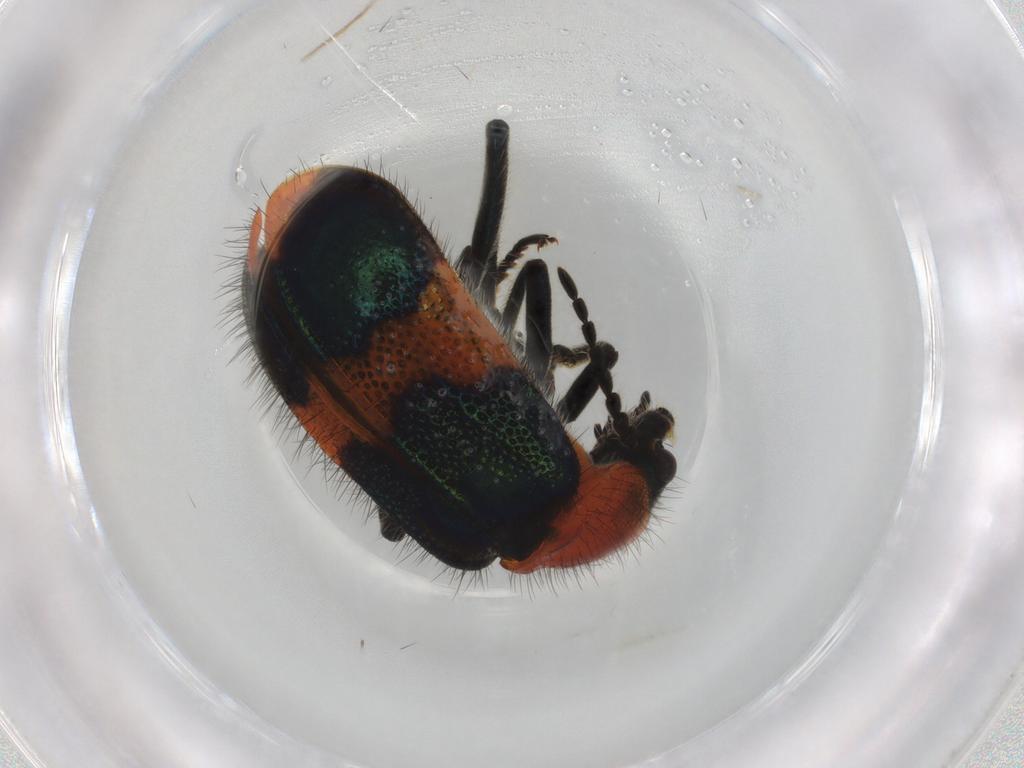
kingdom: Animalia
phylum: Arthropoda
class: Insecta
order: Coleoptera
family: Melyridae
